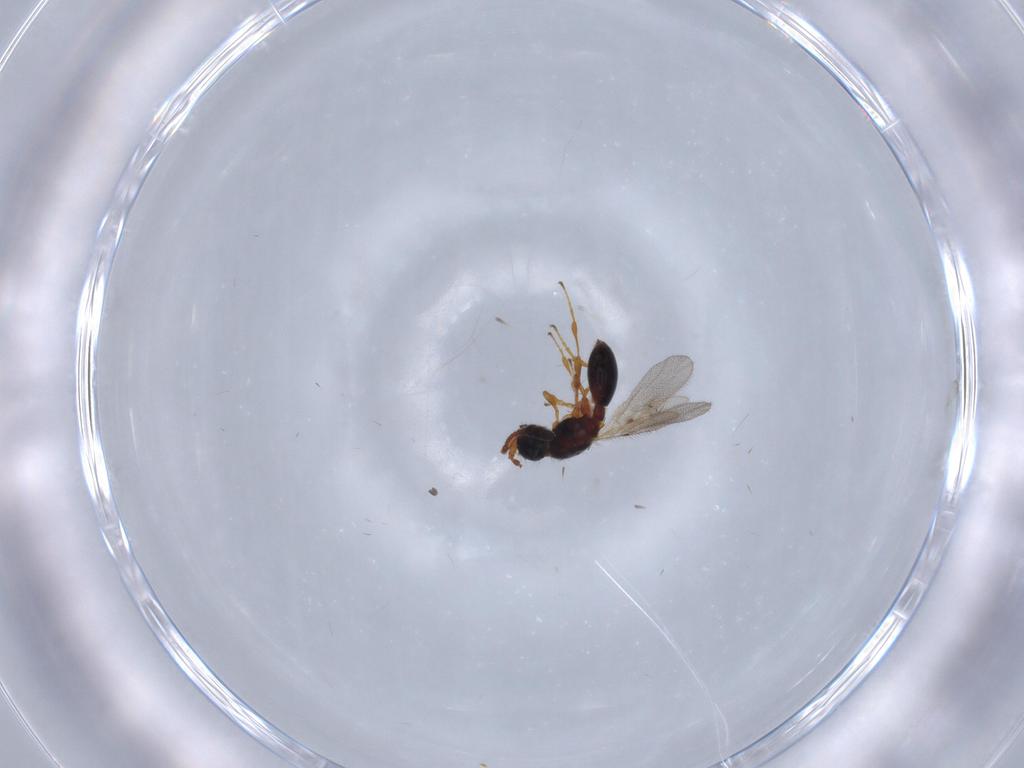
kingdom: Animalia
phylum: Arthropoda
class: Insecta
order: Hymenoptera
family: Diapriidae
